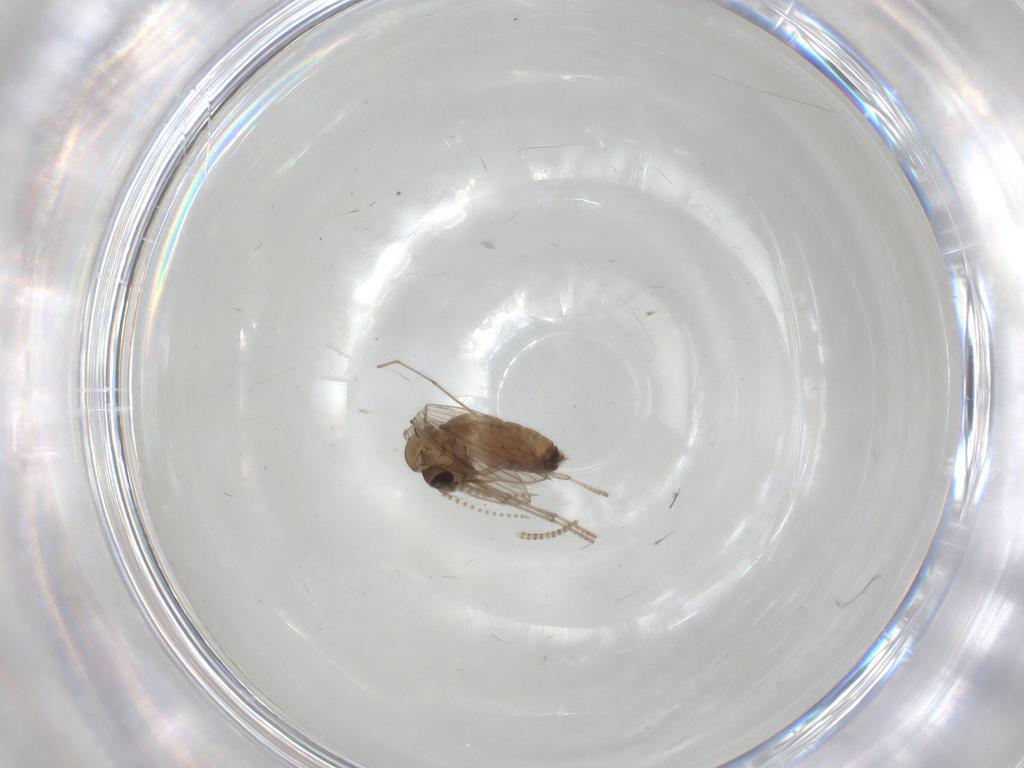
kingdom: Animalia
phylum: Arthropoda
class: Insecta
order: Diptera
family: Psychodidae
